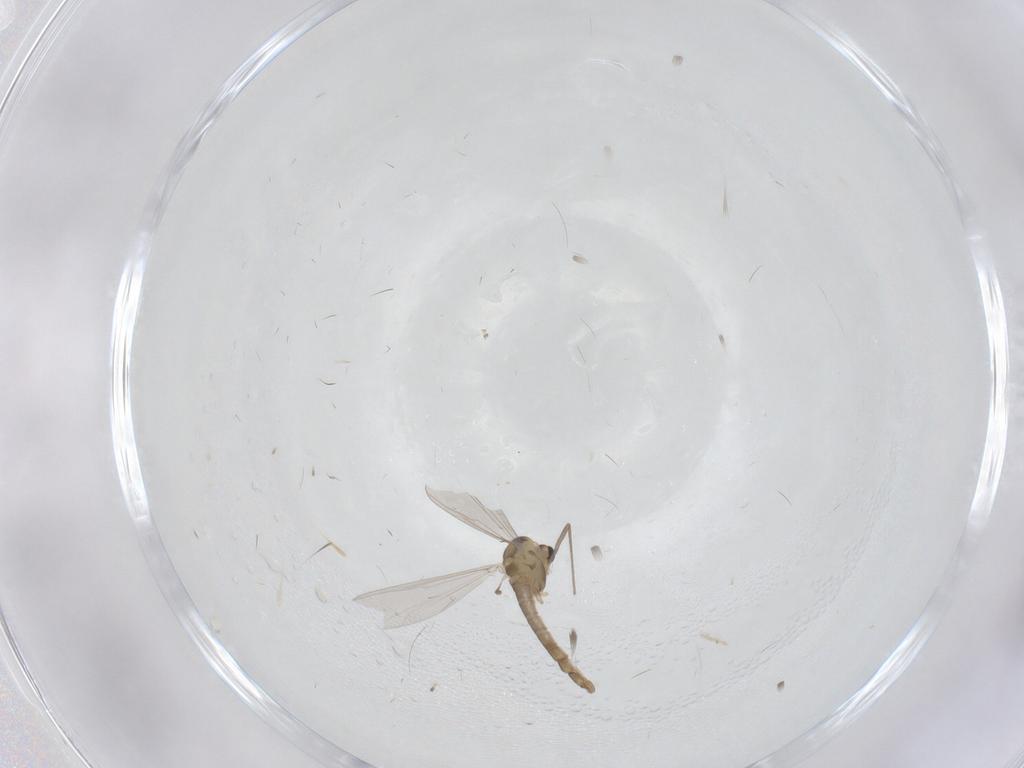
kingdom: Animalia
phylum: Arthropoda
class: Insecta
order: Diptera
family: Chironomidae
